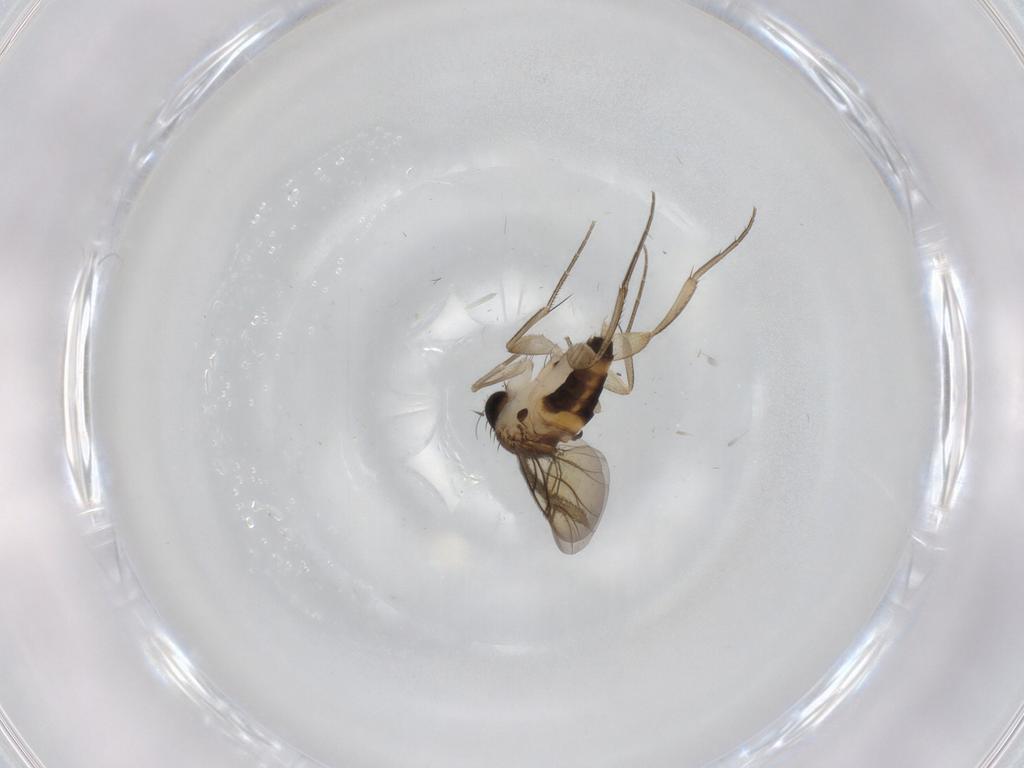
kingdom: Animalia
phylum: Arthropoda
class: Insecta
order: Diptera
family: Mycetophilidae
